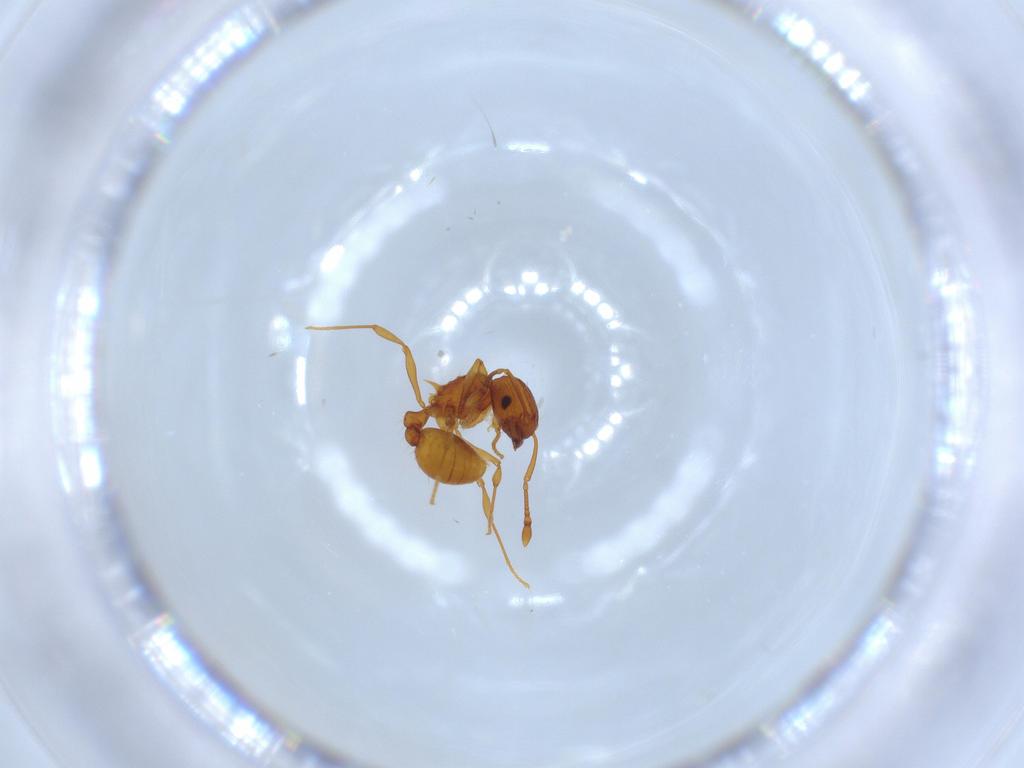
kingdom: Animalia
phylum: Arthropoda
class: Insecta
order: Hymenoptera
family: Formicidae
